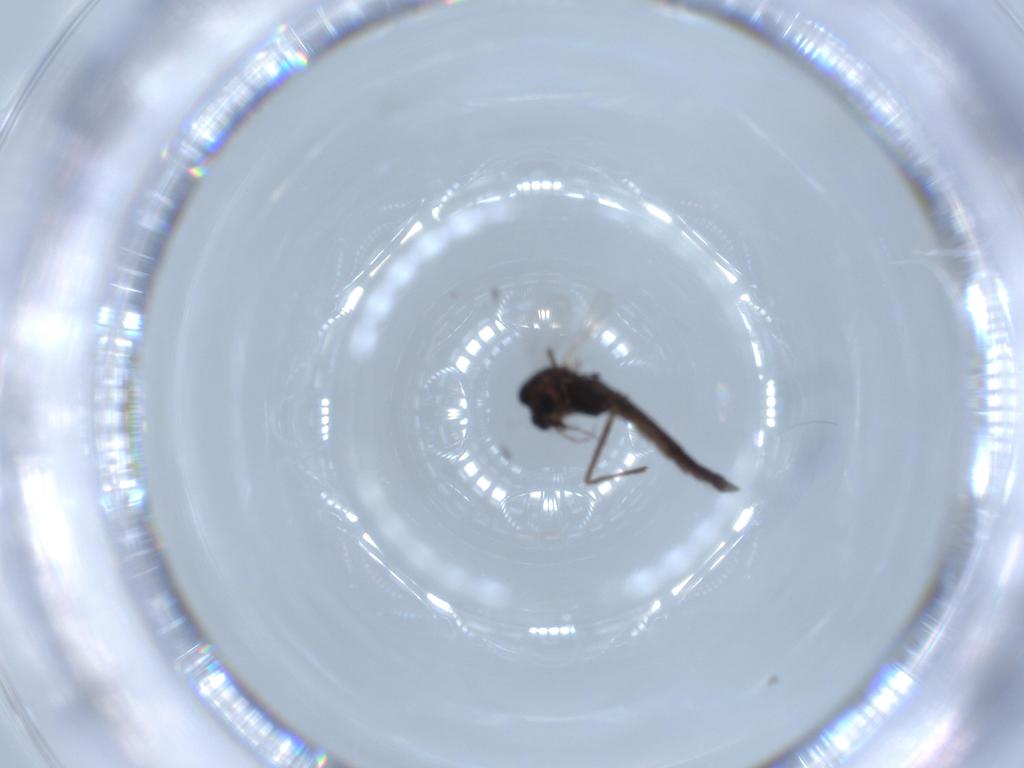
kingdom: Animalia
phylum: Arthropoda
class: Insecta
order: Diptera
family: Chironomidae
